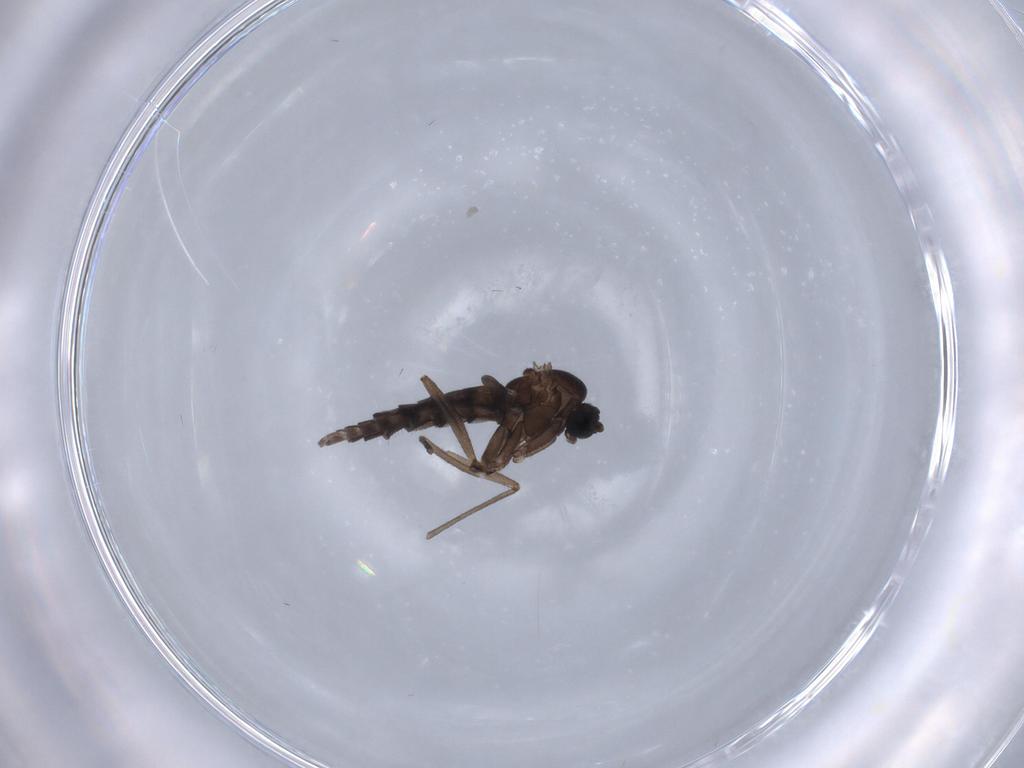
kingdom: Animalia
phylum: Arthropoda
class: Insecta
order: Diptera
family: Sciaridae
